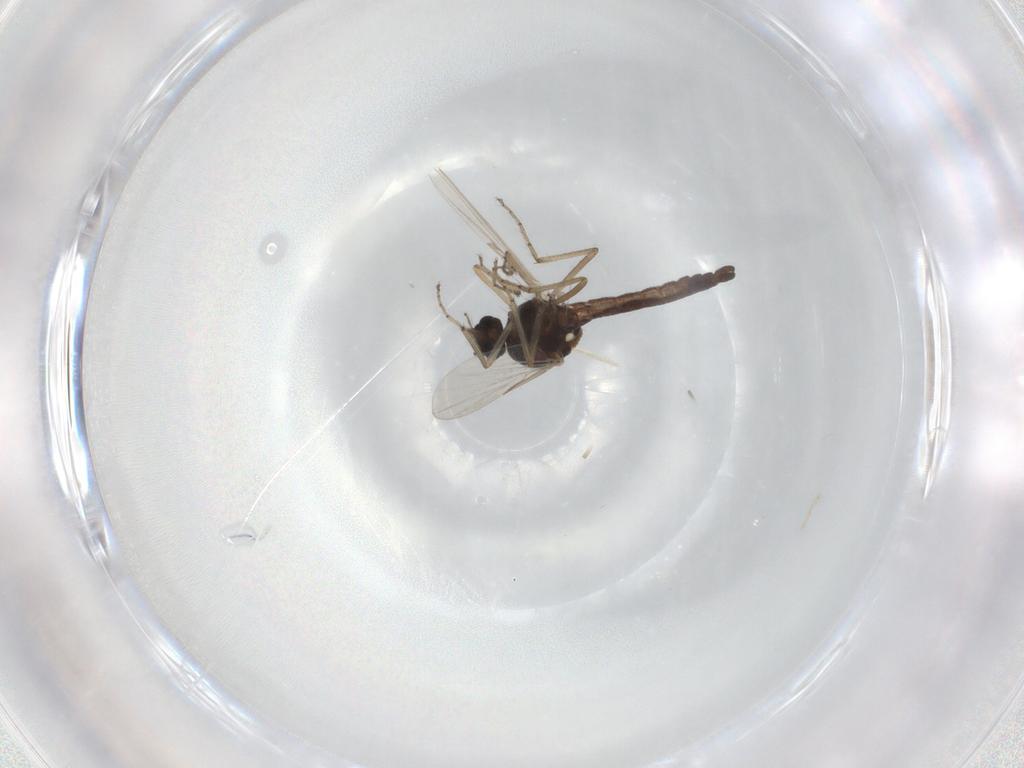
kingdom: Animalia
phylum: Arthropoda
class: Insecta
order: Diptera
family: Ceratopogonidae
